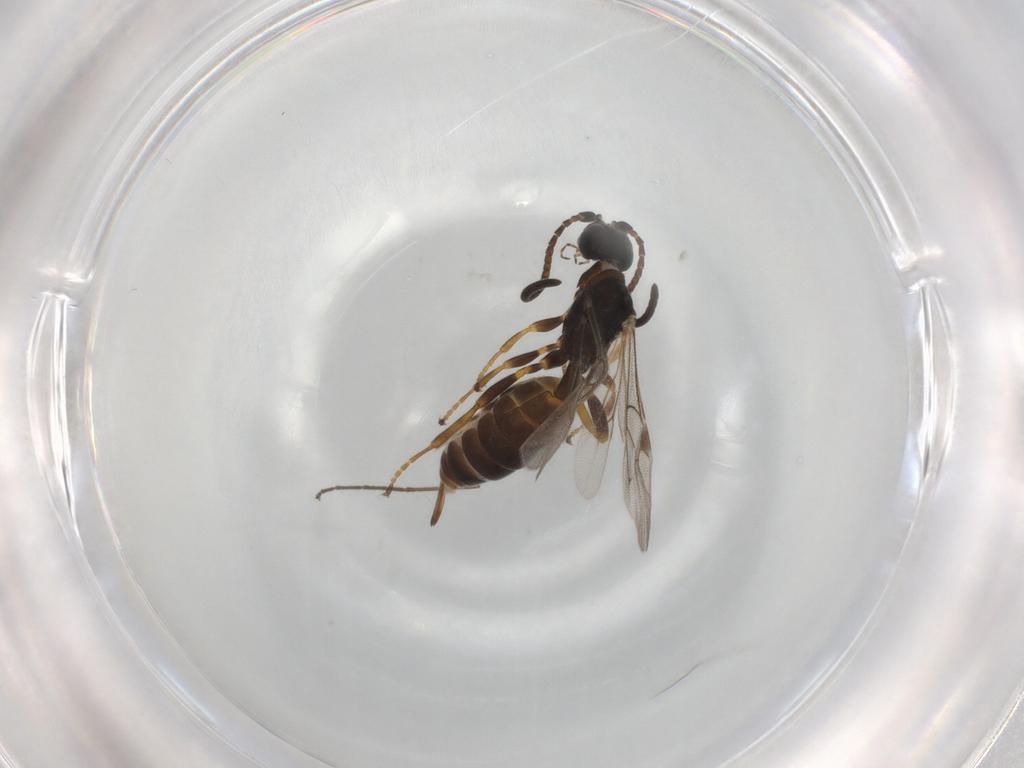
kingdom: Animalia
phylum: Arthropoda
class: Insecta
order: Hymenoptera
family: Ichneumonidae
